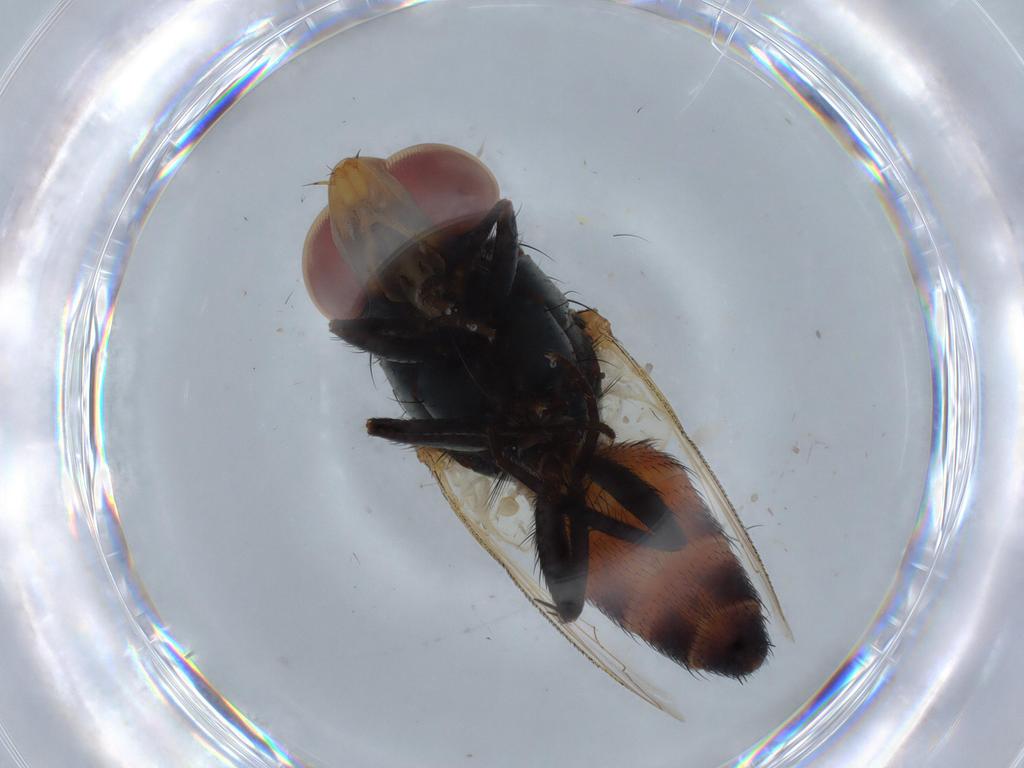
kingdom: Animalia
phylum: Arthropoda
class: Insecta
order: Diptera
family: Sarcophagidae
